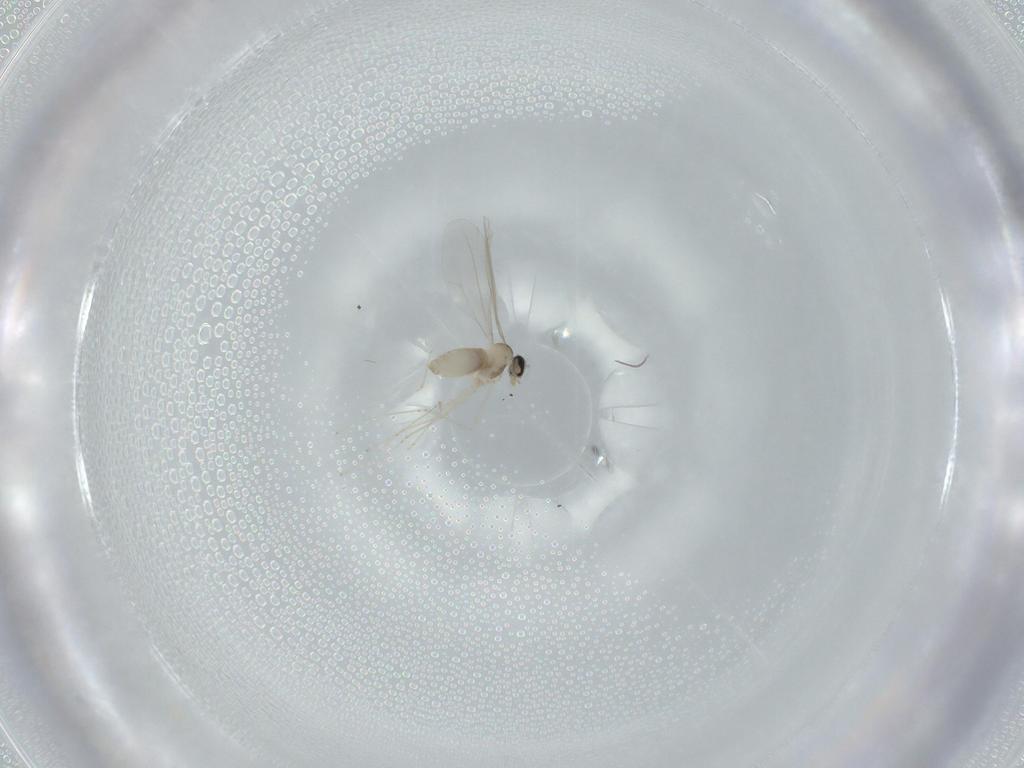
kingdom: Animalia
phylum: Arthropoda
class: Insecta
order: Diptera
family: Cecidomyiidae
